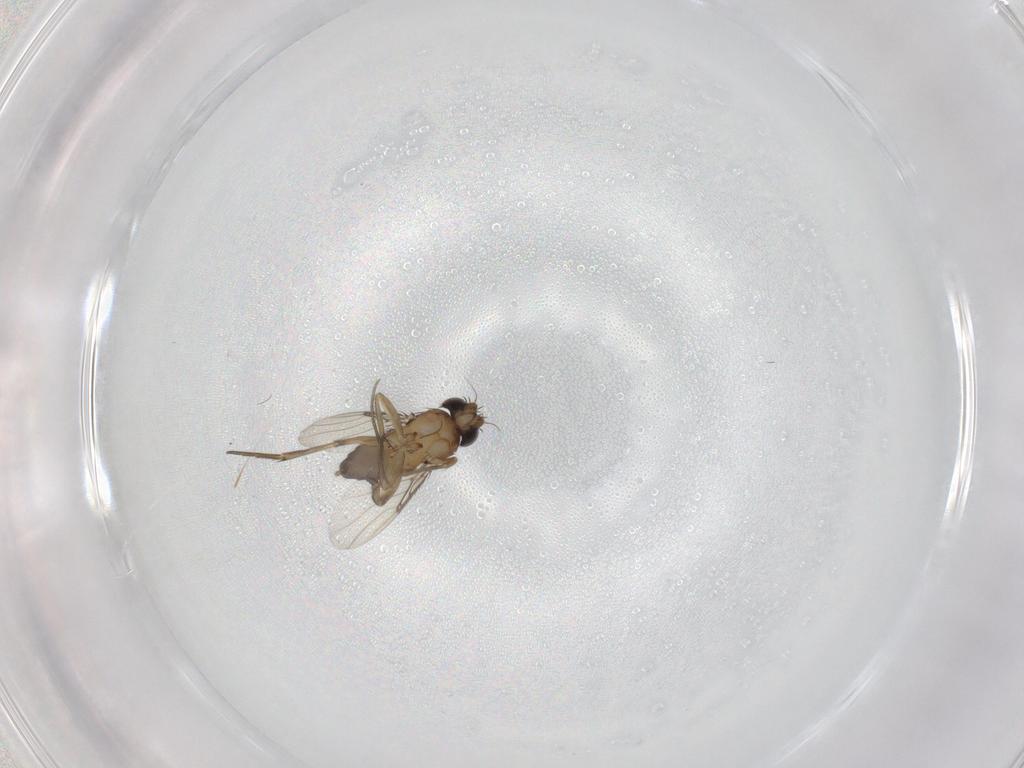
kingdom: Animalia
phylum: Arthropoda
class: Insecta
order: Diptera
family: Phoridae
